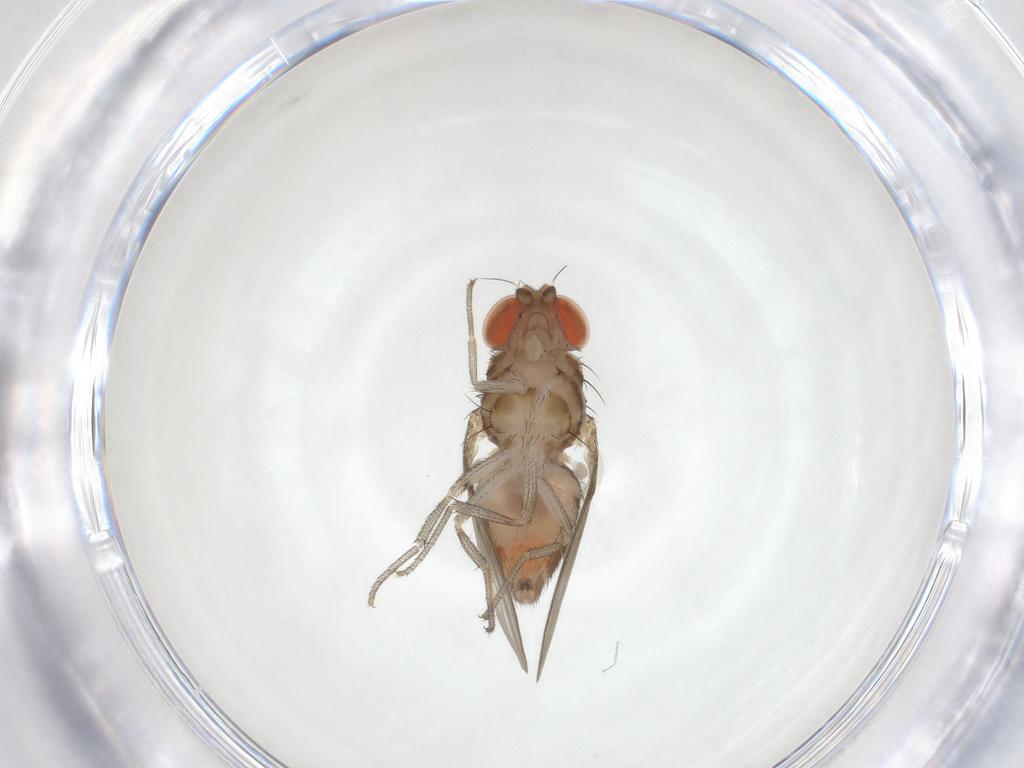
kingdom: Animalia
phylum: Arthropoda
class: Insecta
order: Diptera
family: Drosophilidae
